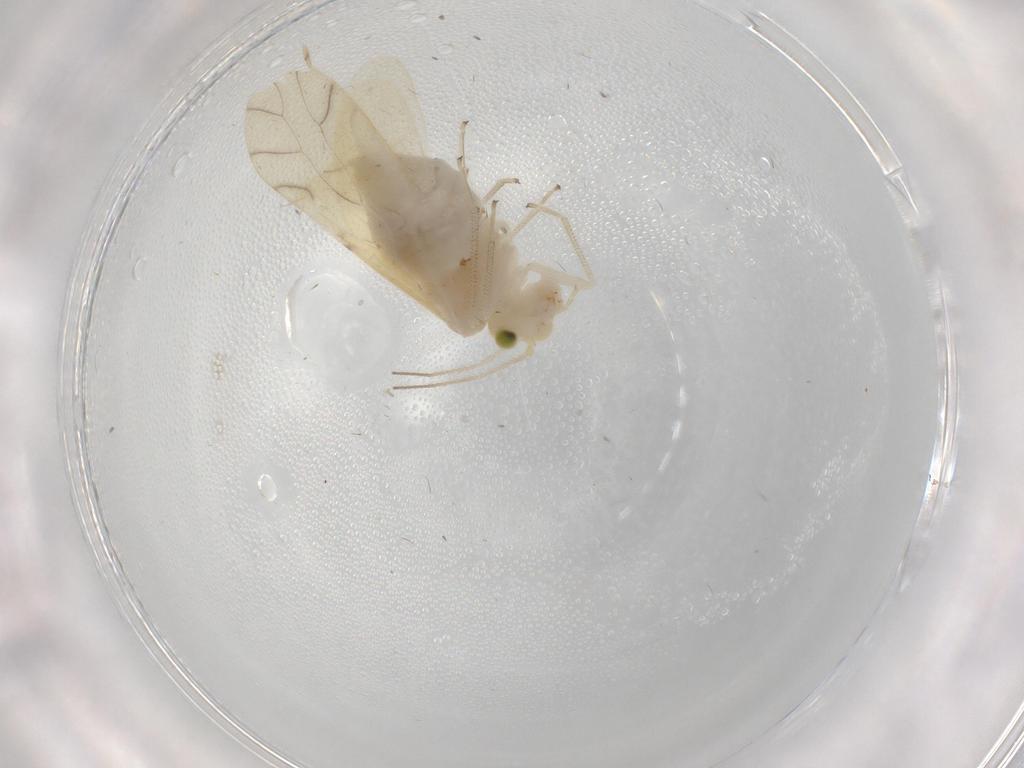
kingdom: Animalia
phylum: Arthropoda
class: Insecta
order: Psocodea
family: Caeciliusidae
